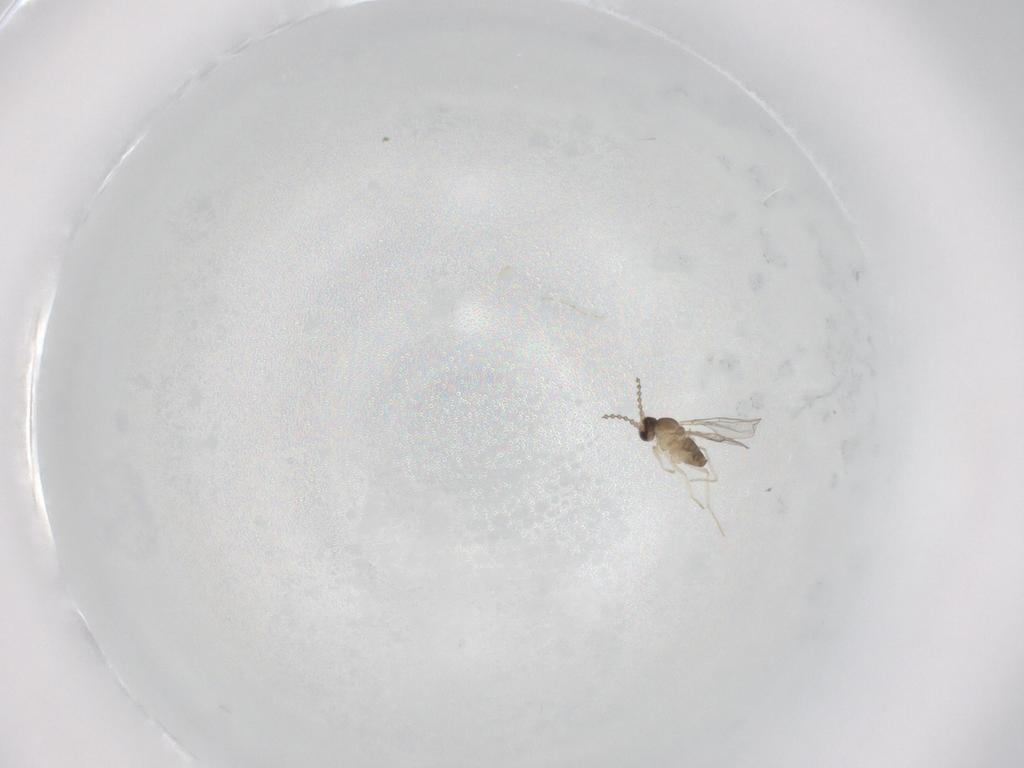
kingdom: Animalia
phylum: Arthropoda
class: Insecta
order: Diptera
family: Cecidomyiidae
